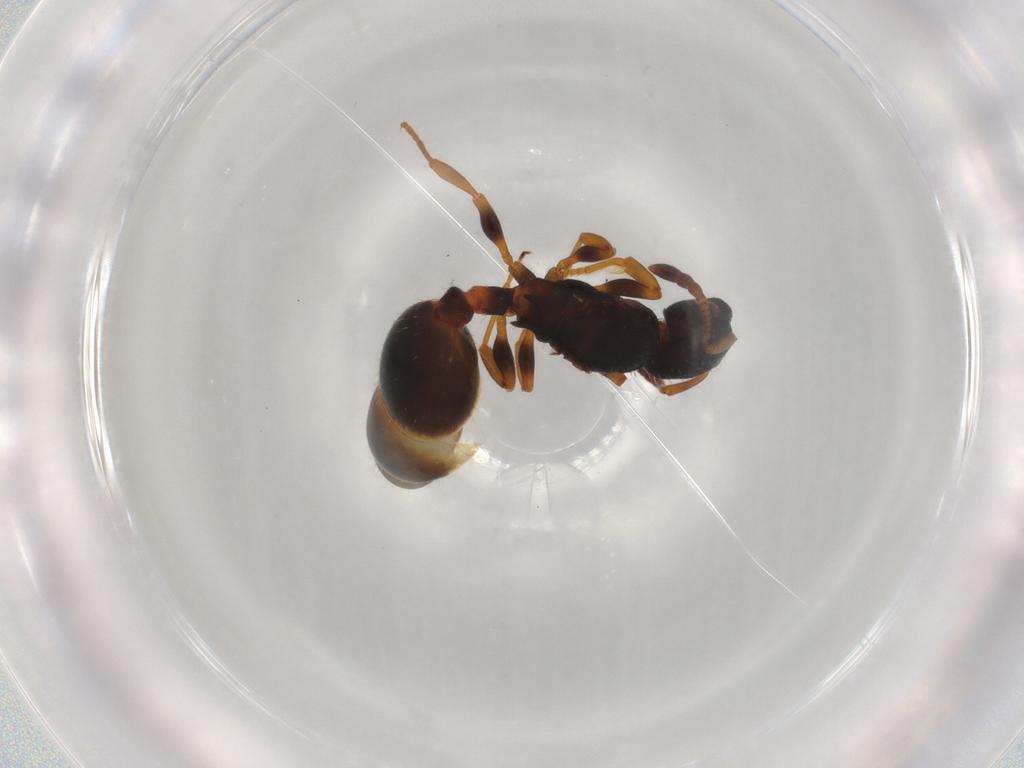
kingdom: Animalia
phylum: Arthropoda
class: Insecta
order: Hymenoptera
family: Formicidae
